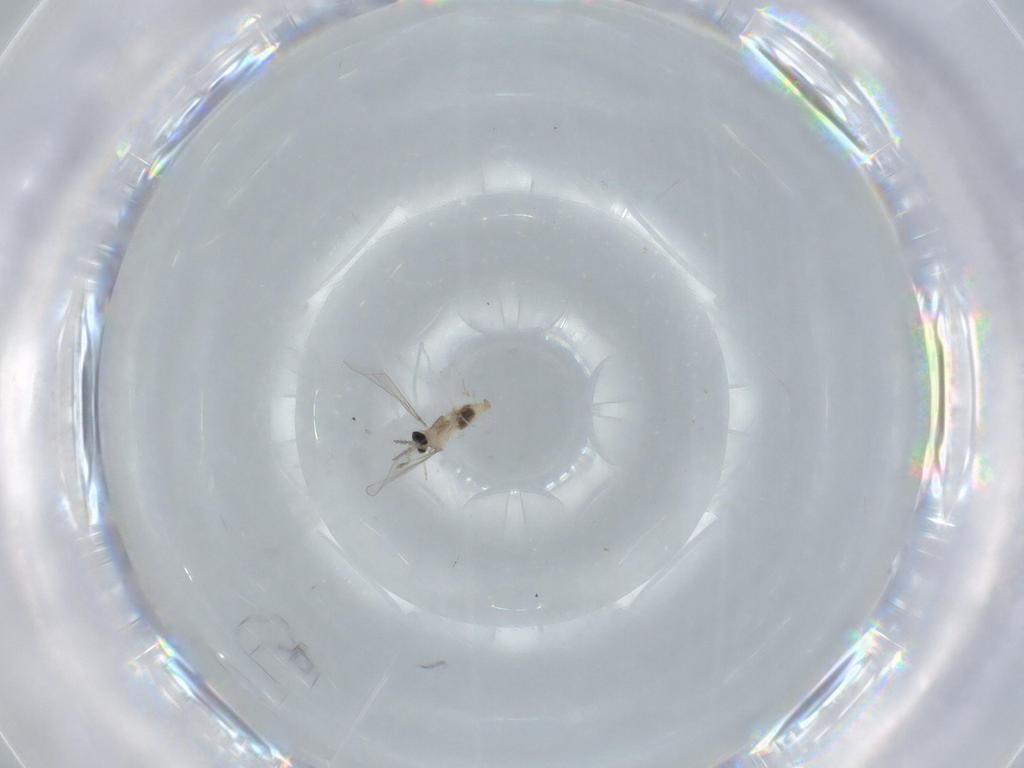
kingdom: Animalia
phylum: Arthropoda
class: Insecta
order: Diptera
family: Cecidomyiidae
